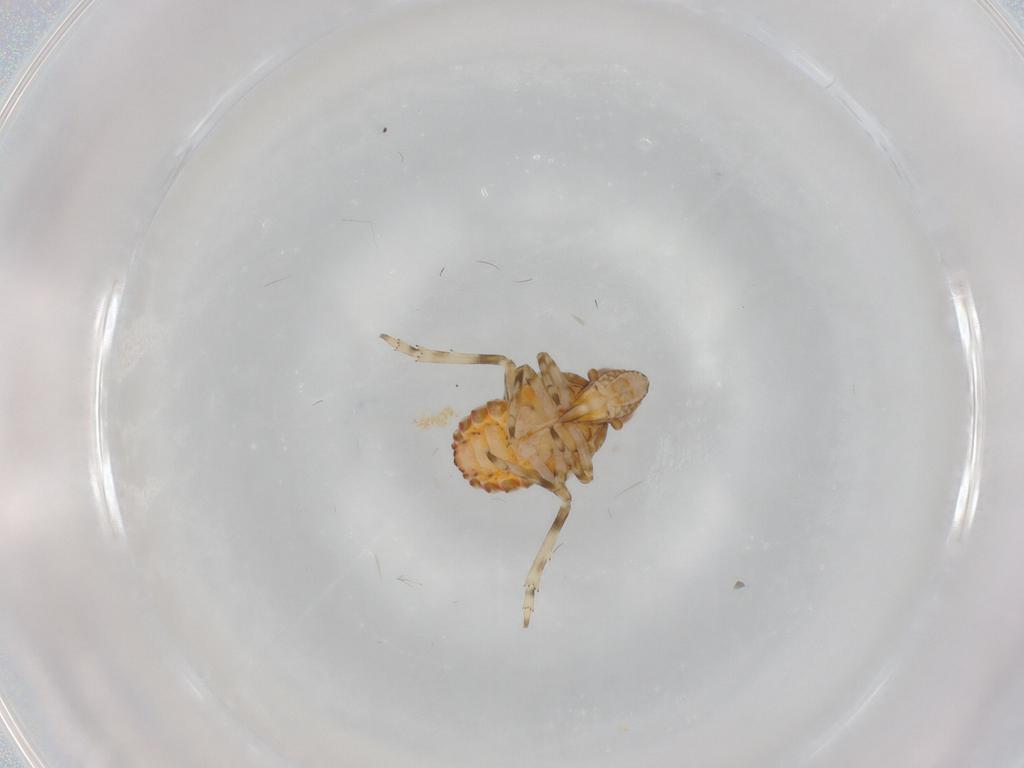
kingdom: Animalia
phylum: Arthropoda
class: Insecta
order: Hemiptera
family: Tropiduchidae
